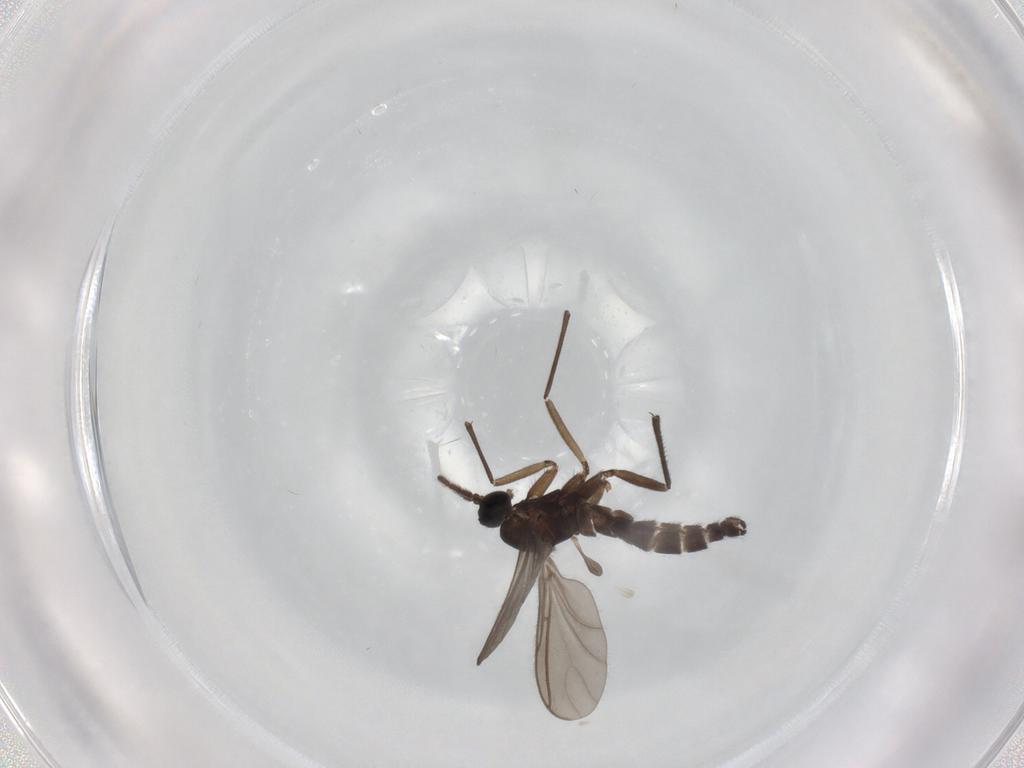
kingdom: Animalia
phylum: Arthropoda
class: Insecta
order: Diptera
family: Sciaridae
